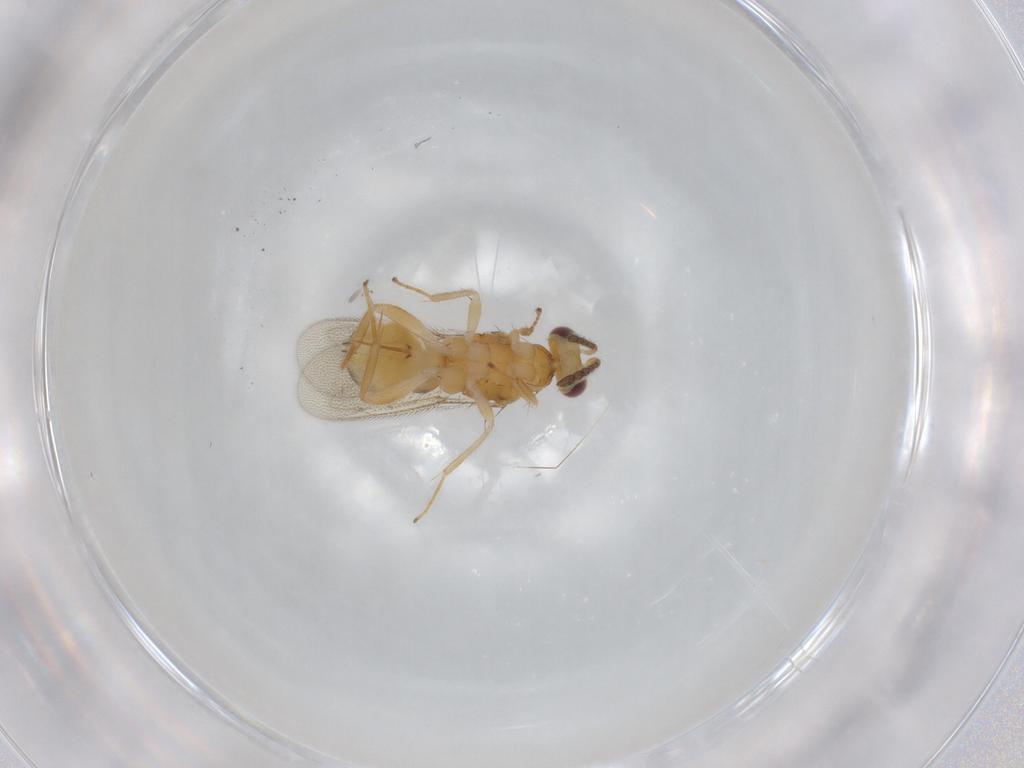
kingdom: Animalia
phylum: Arthropoda
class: Insecta
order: Hymenoptera
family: Eulophidae
